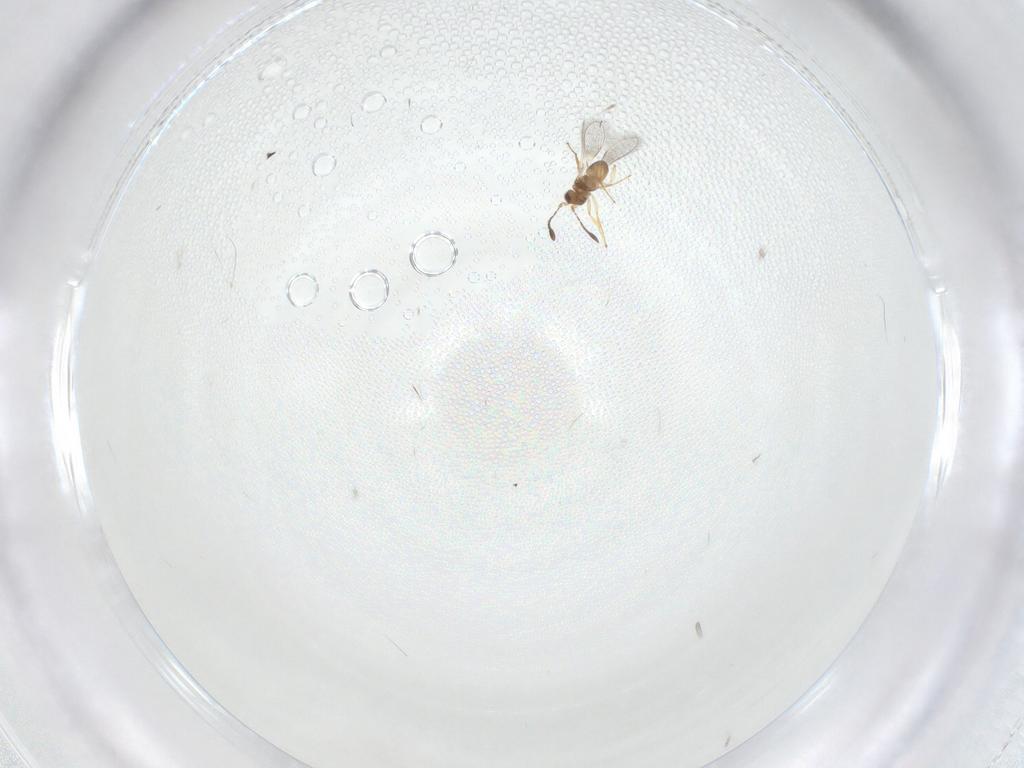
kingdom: Animalia
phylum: Arthropoda
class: Insecta
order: Hymenoptera
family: Mymaridae
